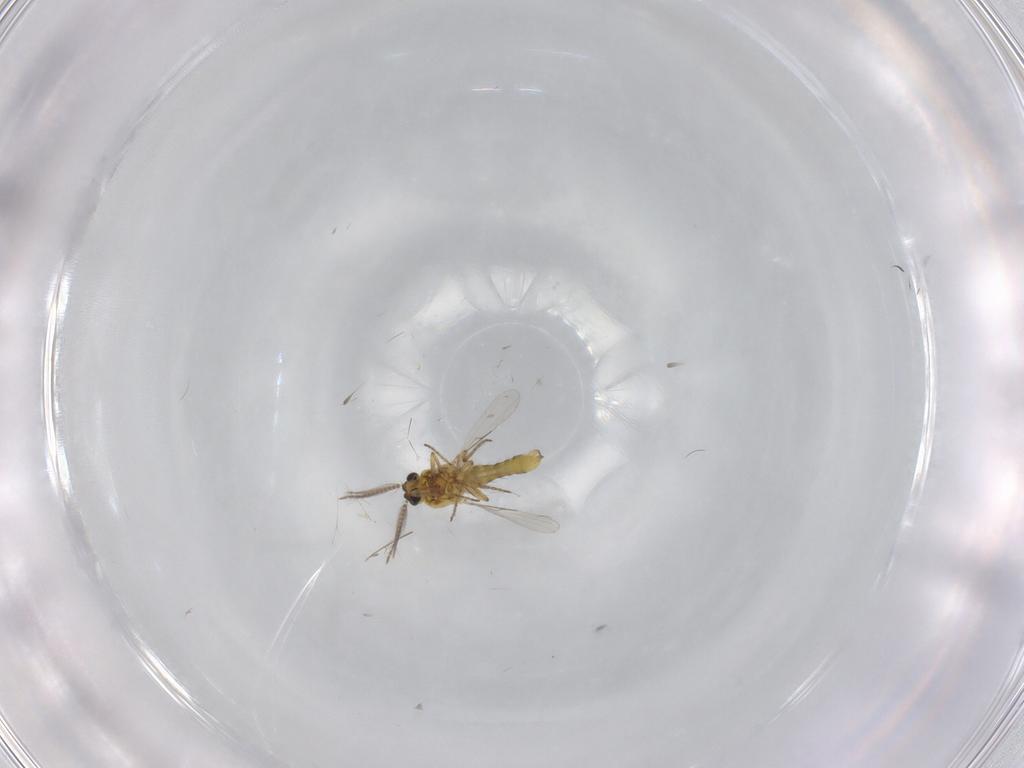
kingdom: Animalia
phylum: Arthropoda
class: Insecta
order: Diptera
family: Ceratopogonidae
